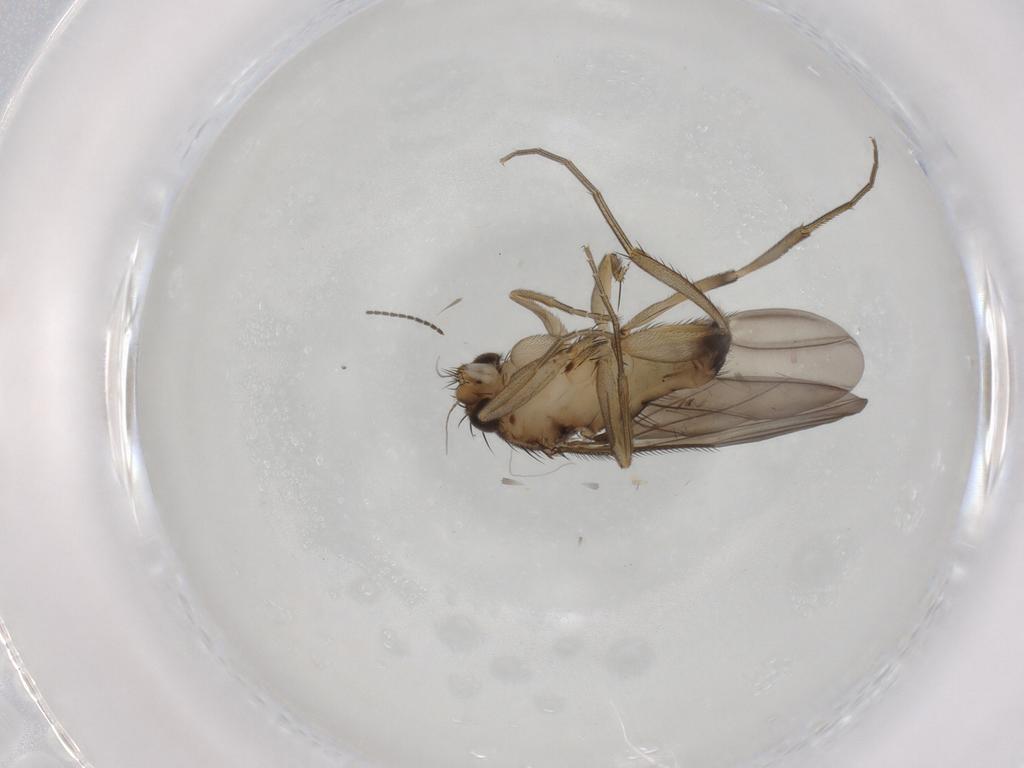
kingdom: Animalia
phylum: Arthropoda
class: Insecta
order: Diptera
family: Phoridae
